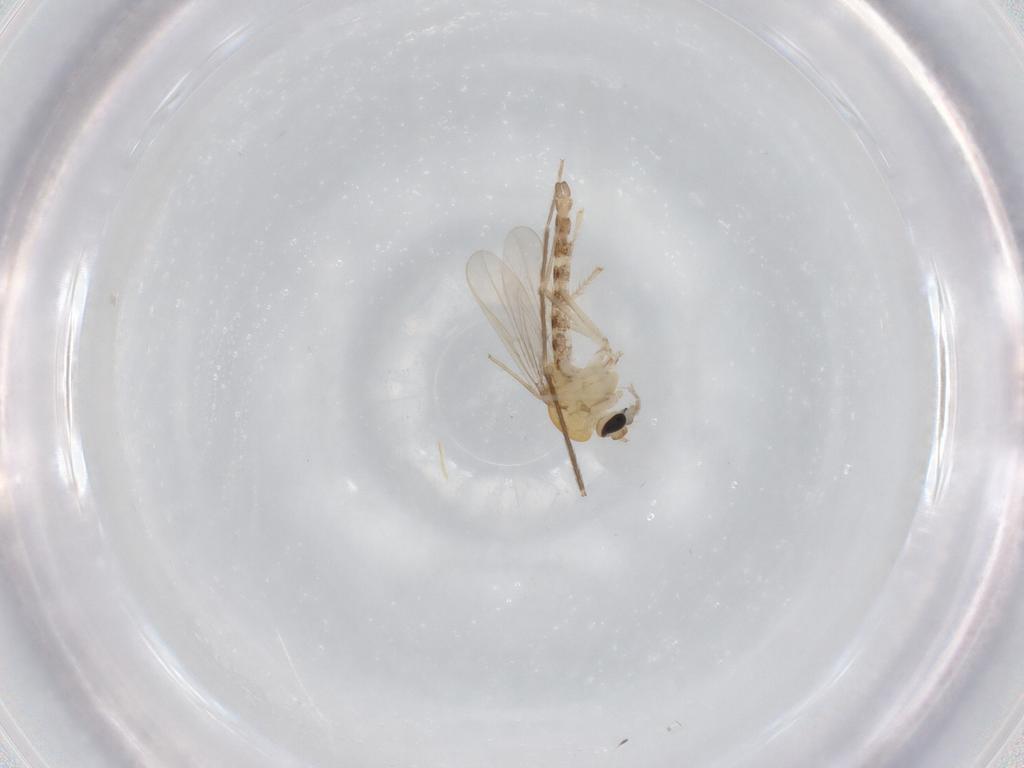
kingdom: Animalia
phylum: Arthropoda
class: Insecta
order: Diptera
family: Chironomidae
